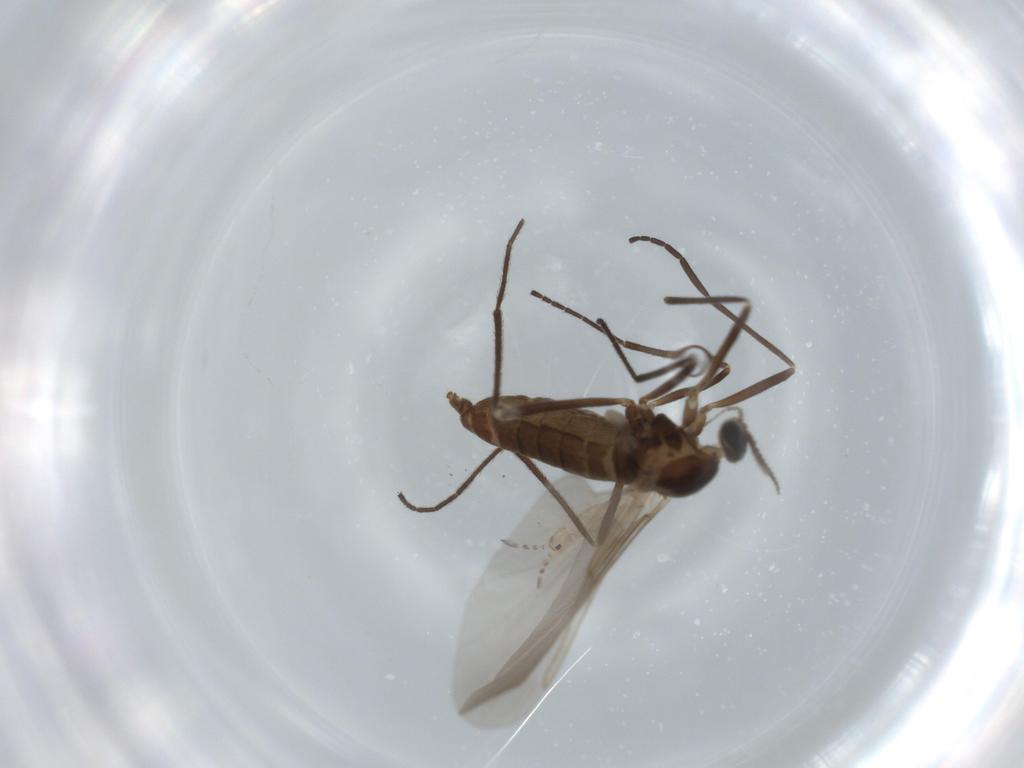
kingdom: Animalia
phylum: Arthropoda
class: Insecta
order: Diptera
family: Cecidomyiidae
